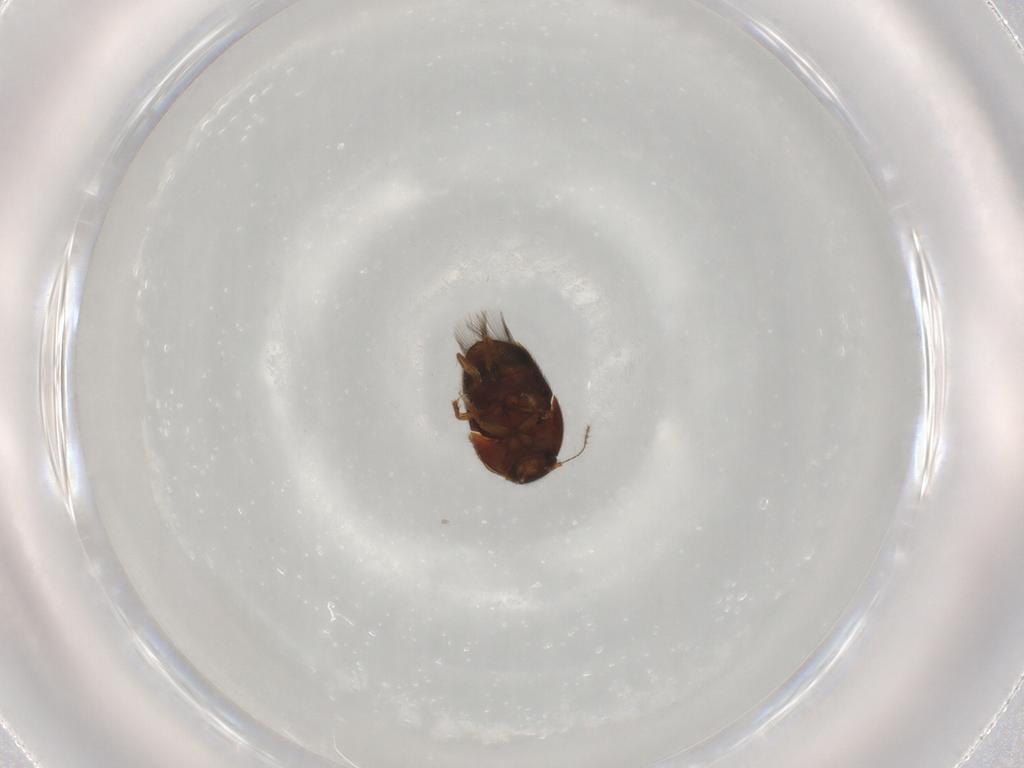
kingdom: Animalia
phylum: Arthropoda
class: Insecta
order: Coleoptera
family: Ptiliidae
